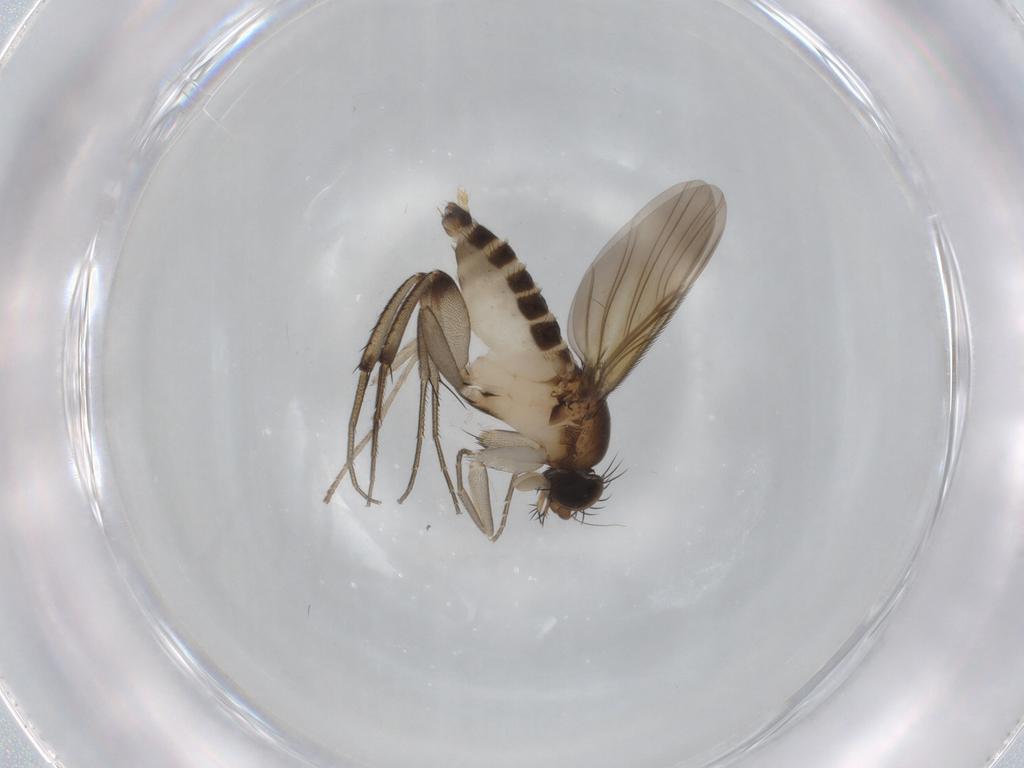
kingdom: Animalia
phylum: Arthropoda
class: Insecta
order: Diptera
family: Phoridae
